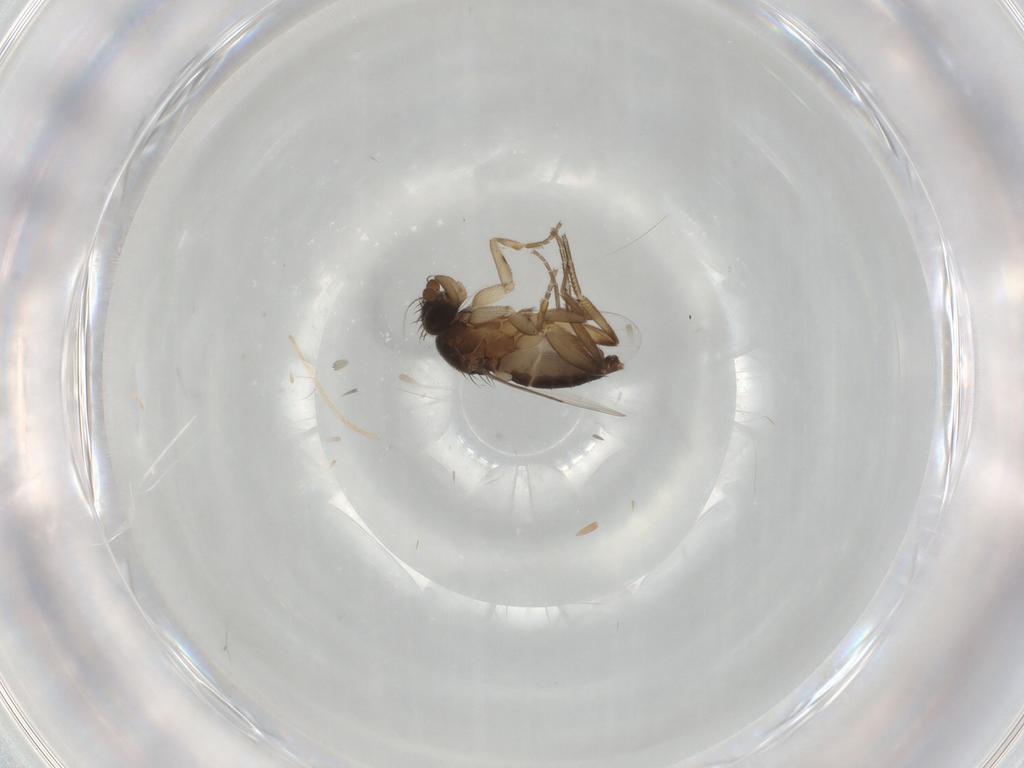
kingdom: Animalia
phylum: Arthropoda
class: Insecta
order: Diptera
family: Phoridae
